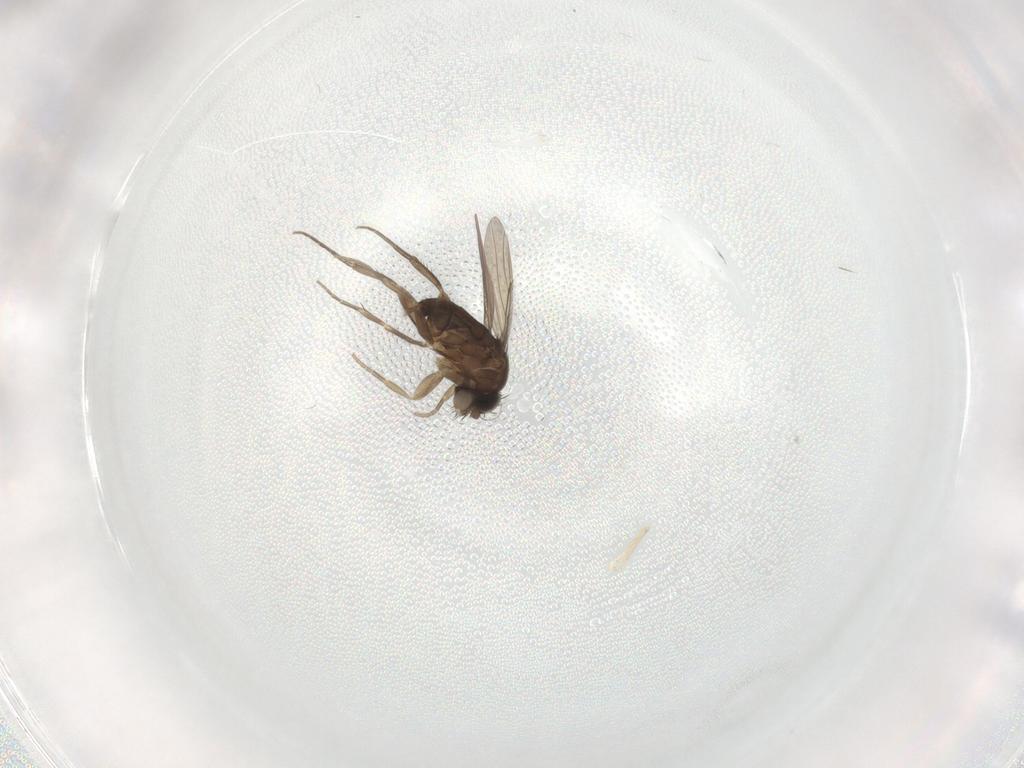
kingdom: Animalia
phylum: Arthropoda
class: Insecta
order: Diptera
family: Phoridae
